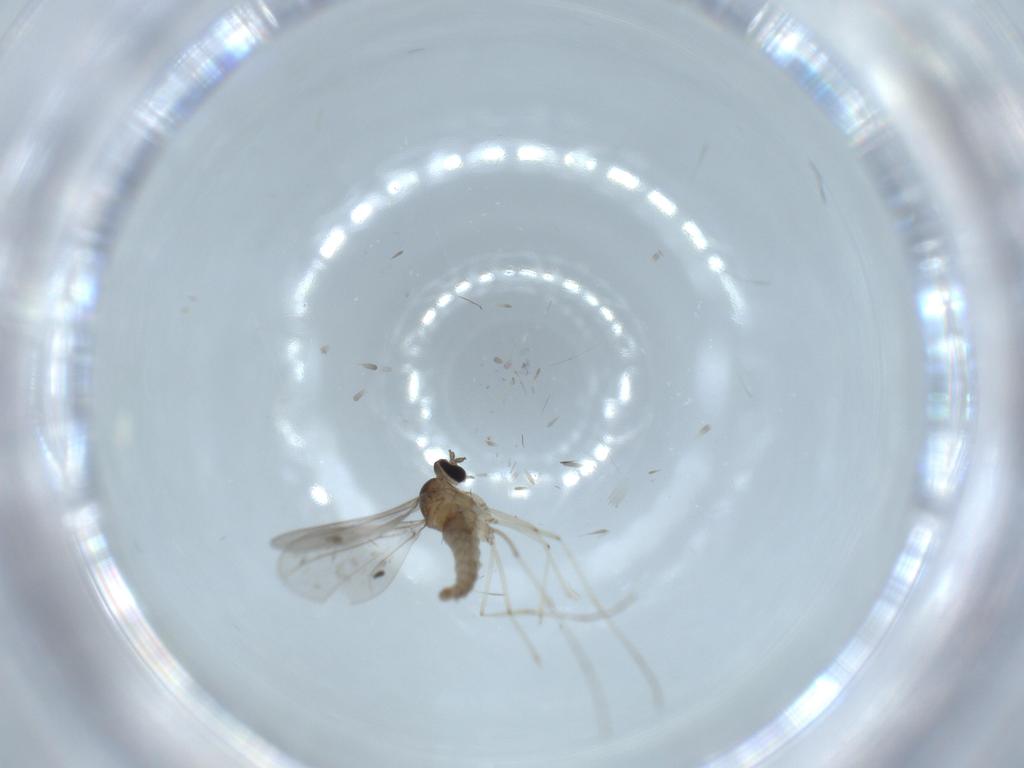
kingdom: Animalia
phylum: Arthropoda
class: Insecta
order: Diptera
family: Cecidomyiidae
